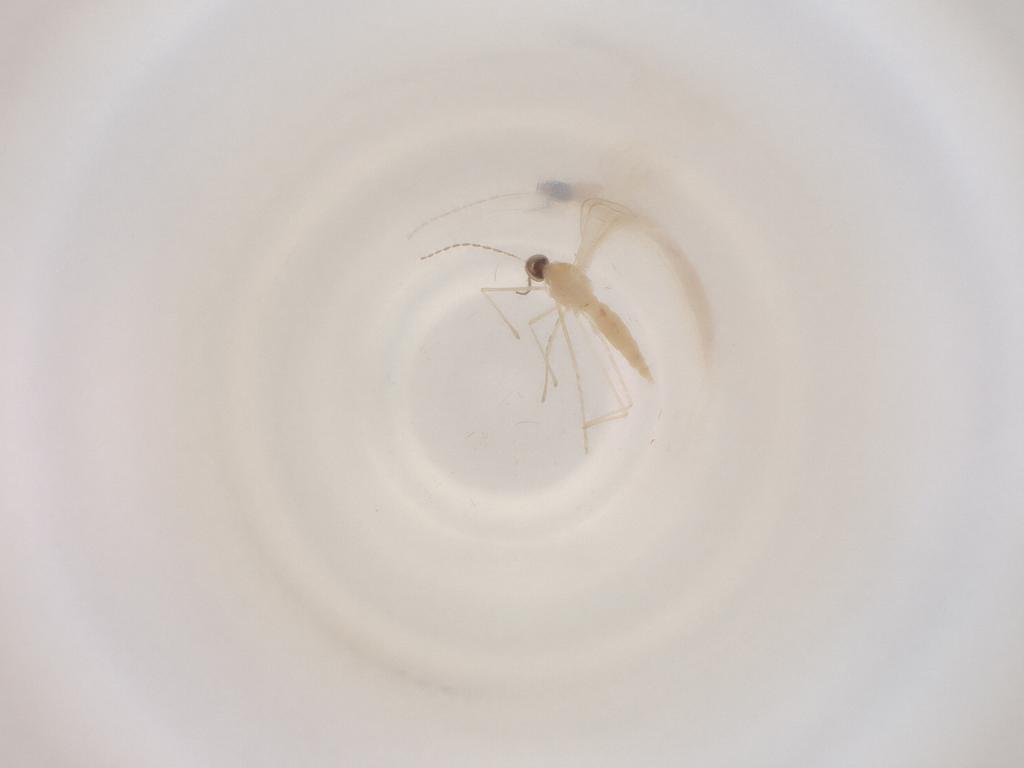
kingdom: Animalia
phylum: Arthropoda
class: Insecta
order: Diptera
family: Cecidomyiidae
